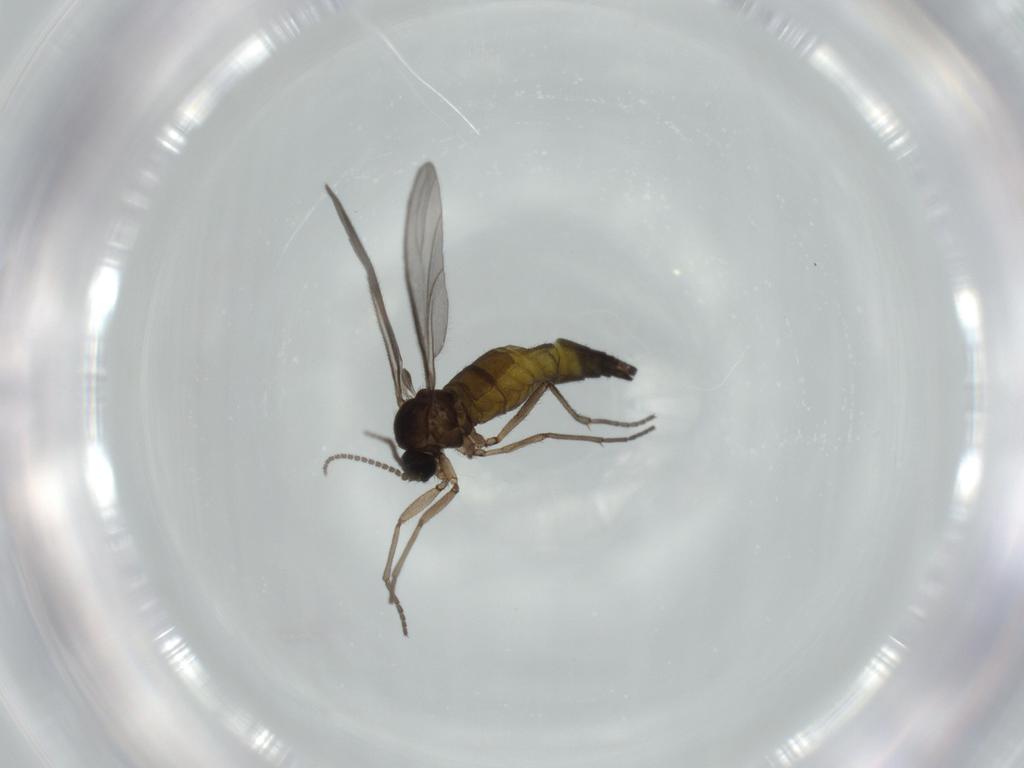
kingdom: Animalia
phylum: Arthropoda
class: Insecta
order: Diptera
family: Sciaridae
